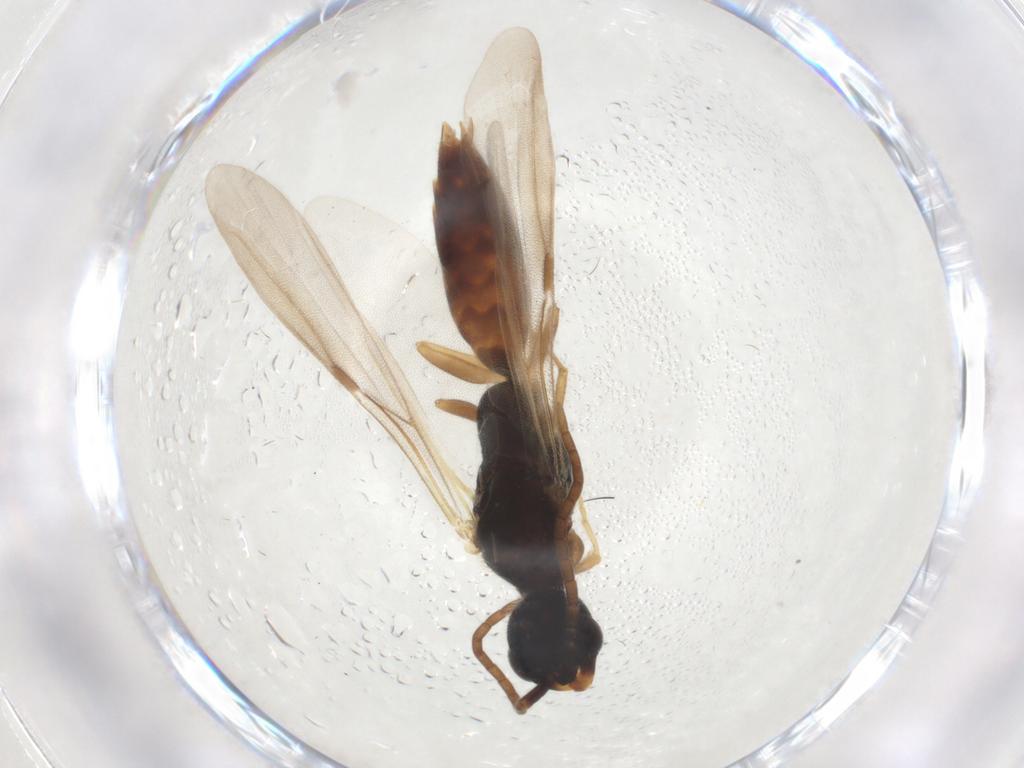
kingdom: Animalia
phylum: Arthropoda
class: Insecta
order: Hymenoptera
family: Bethylidae
